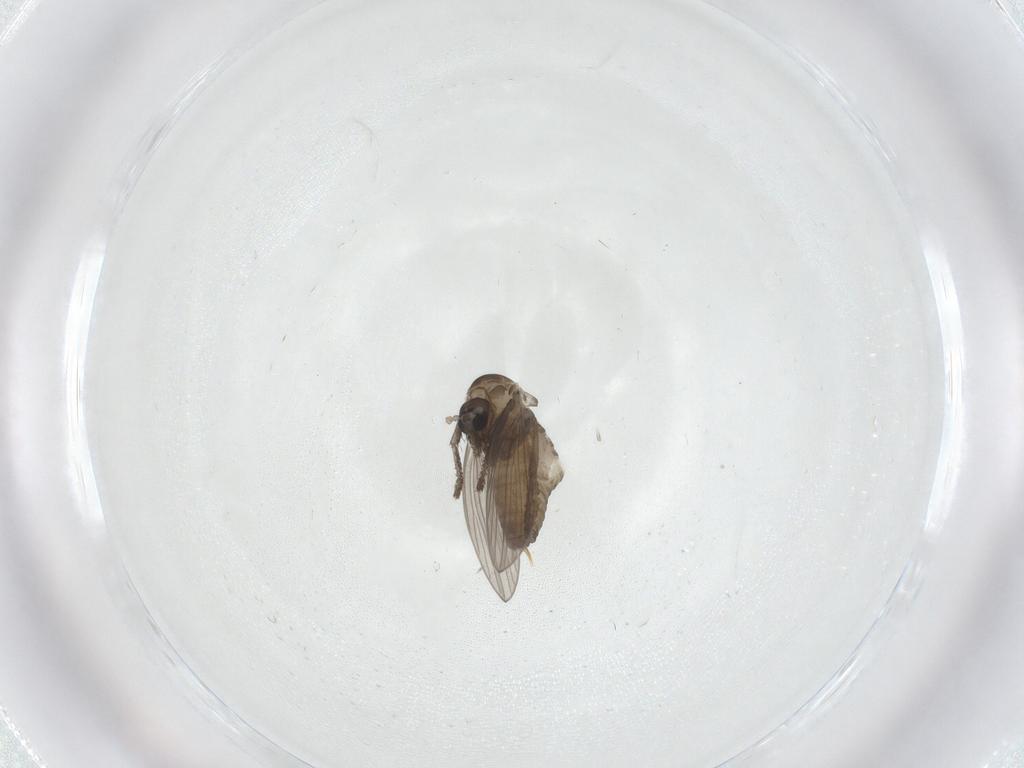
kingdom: Animalia
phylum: Arthropoda
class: Insecta
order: Diptera
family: Psychodidae
